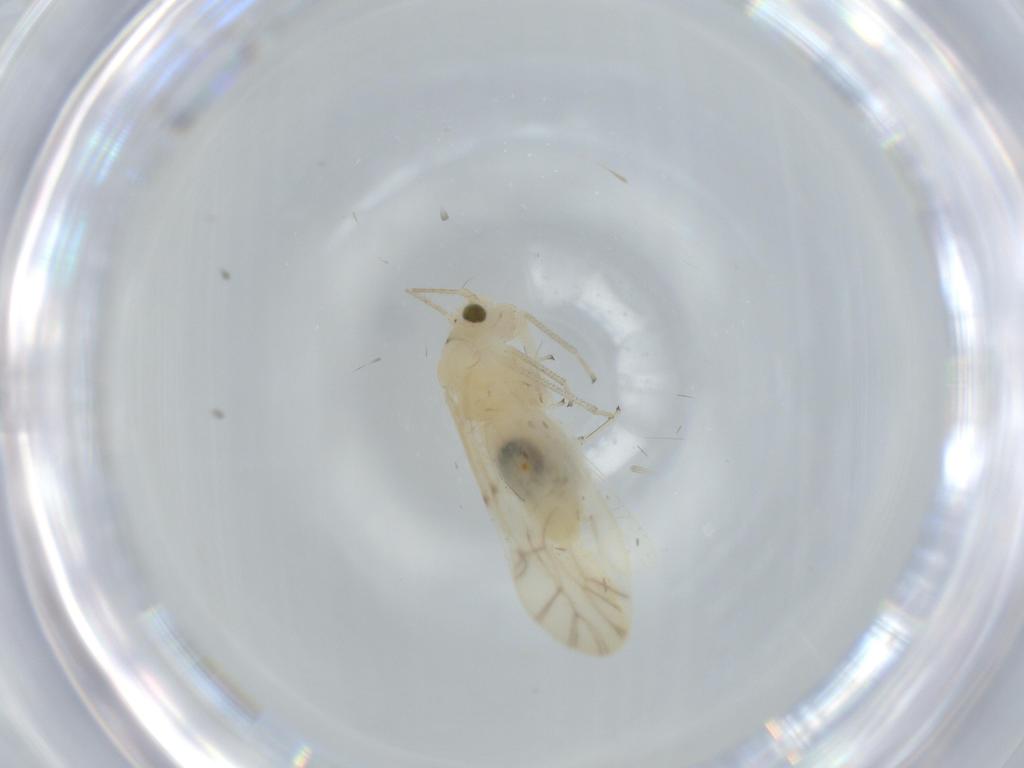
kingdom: Animalia
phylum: Arthropoda
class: Insecta
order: Psocodea
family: Caeciliusidae
